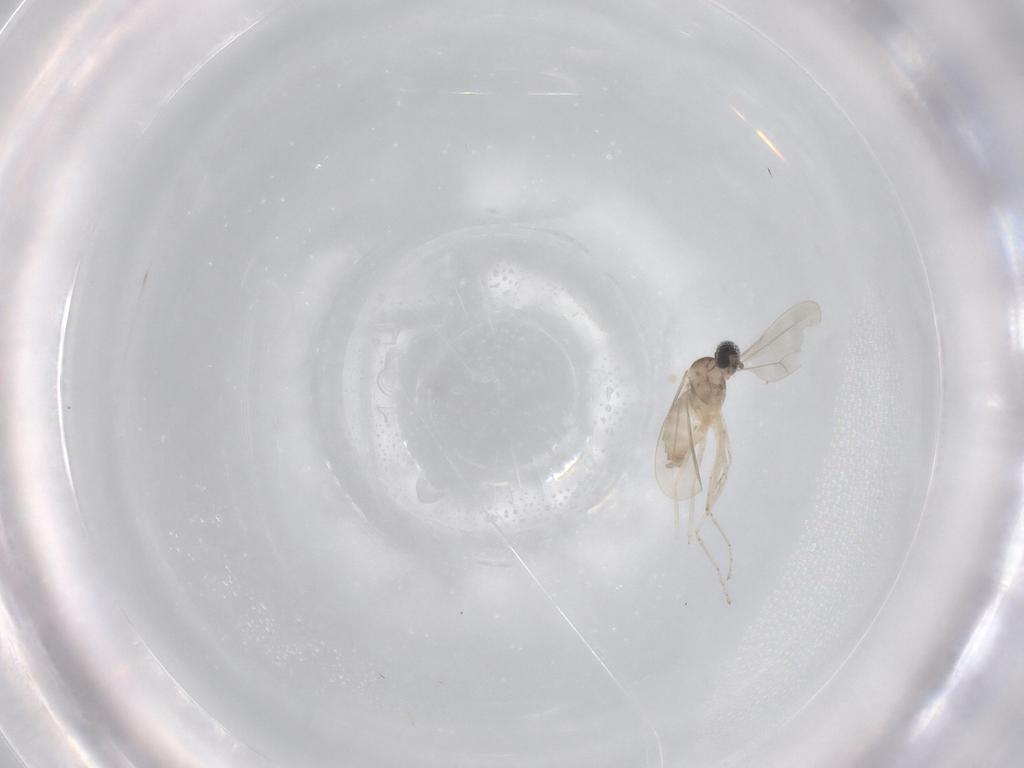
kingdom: Animalia
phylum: Arthropoda
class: Insecta
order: Diptera
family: Cecidomyiidae
